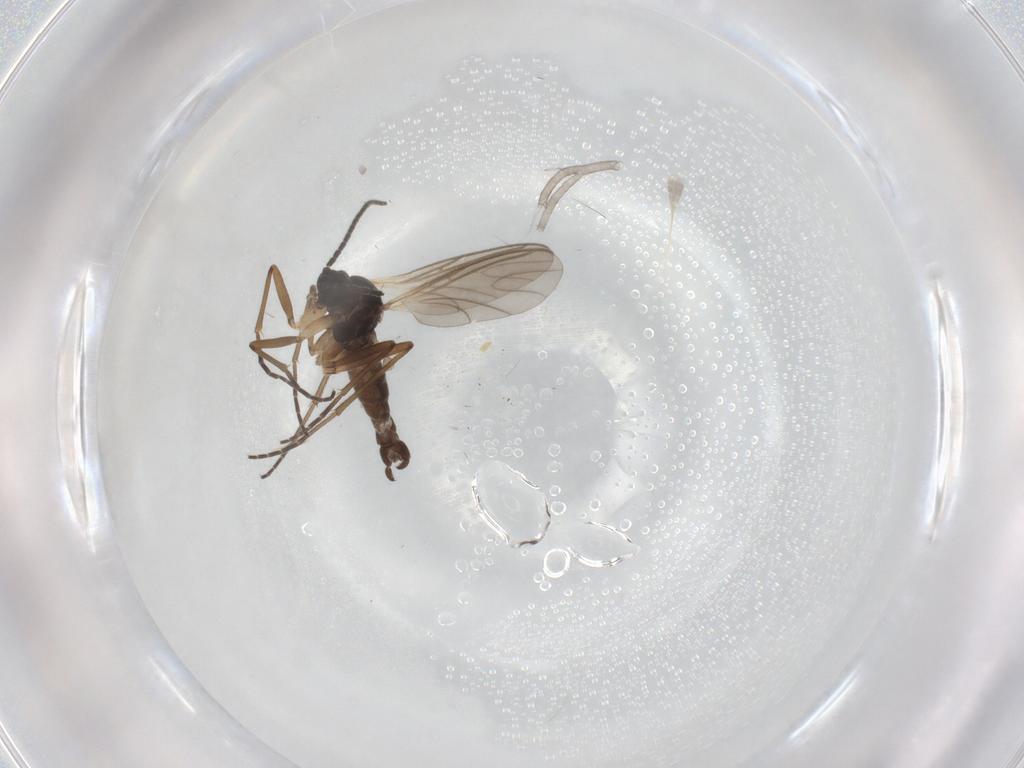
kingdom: Animalia
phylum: Arthropoda
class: Insecta
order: Diptera
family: Sciaridae
